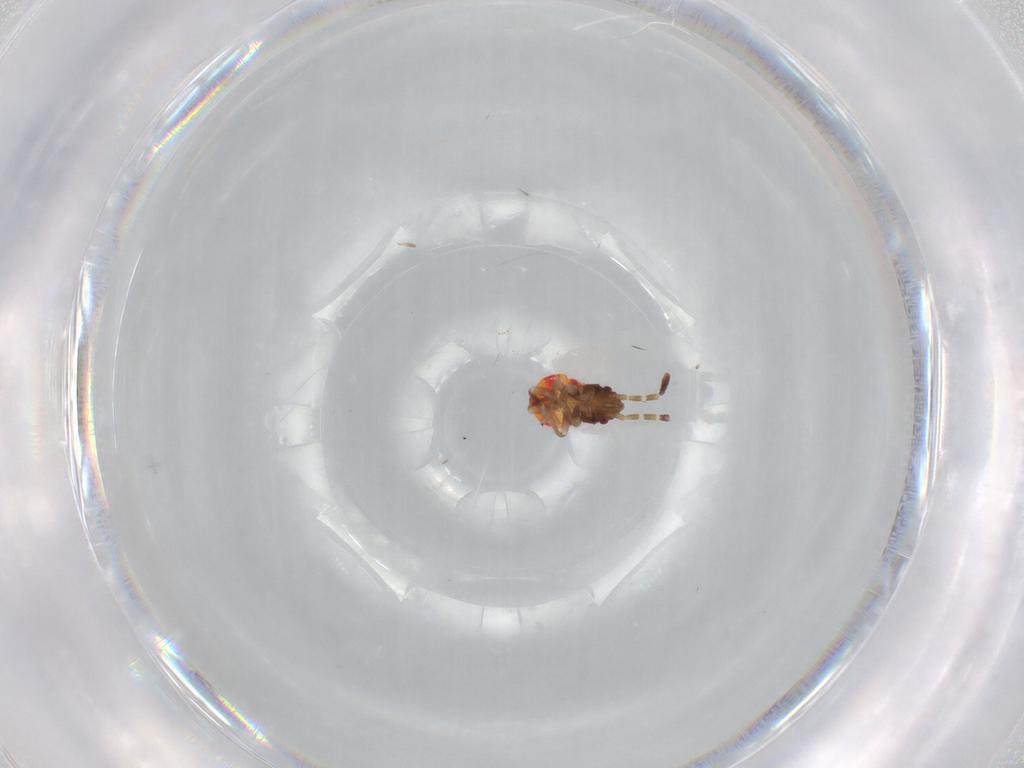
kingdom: Animalia
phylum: Arthropoda
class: Insecta
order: Hemiptera
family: Rhyparochromidae
